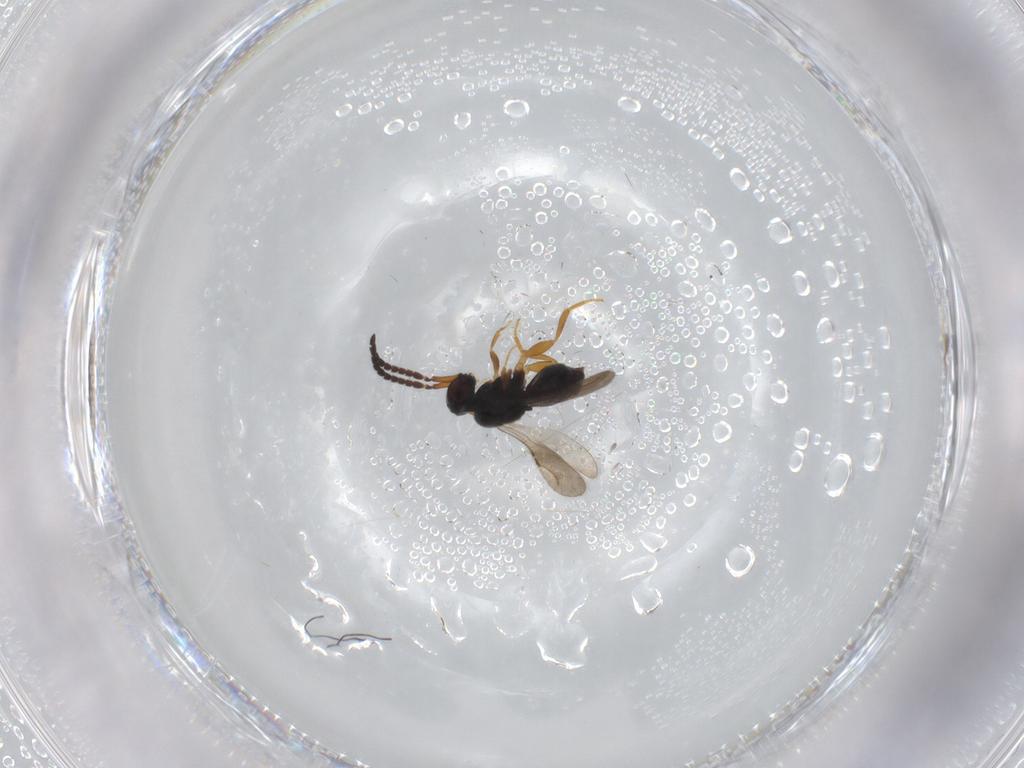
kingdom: Animalia
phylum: Arthropoda
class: Insecta
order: Hymenoptera
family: Ceraphronidae
